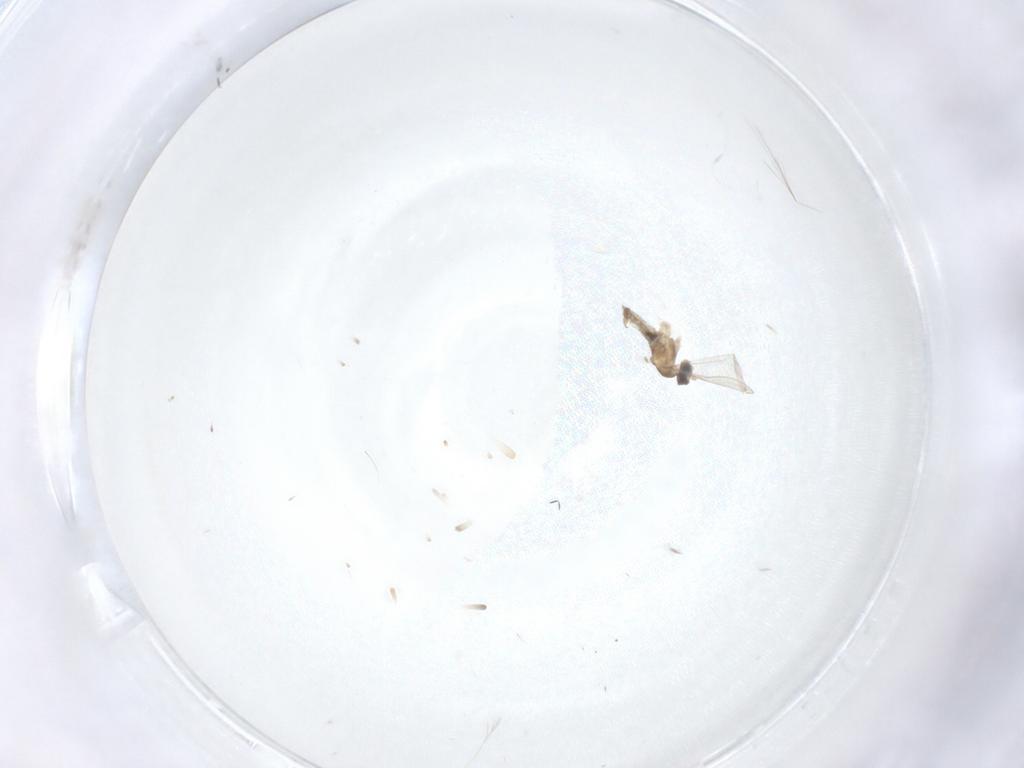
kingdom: Animalia
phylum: Arthropoda
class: Insecta
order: Diptera
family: Cecidomyiidae
